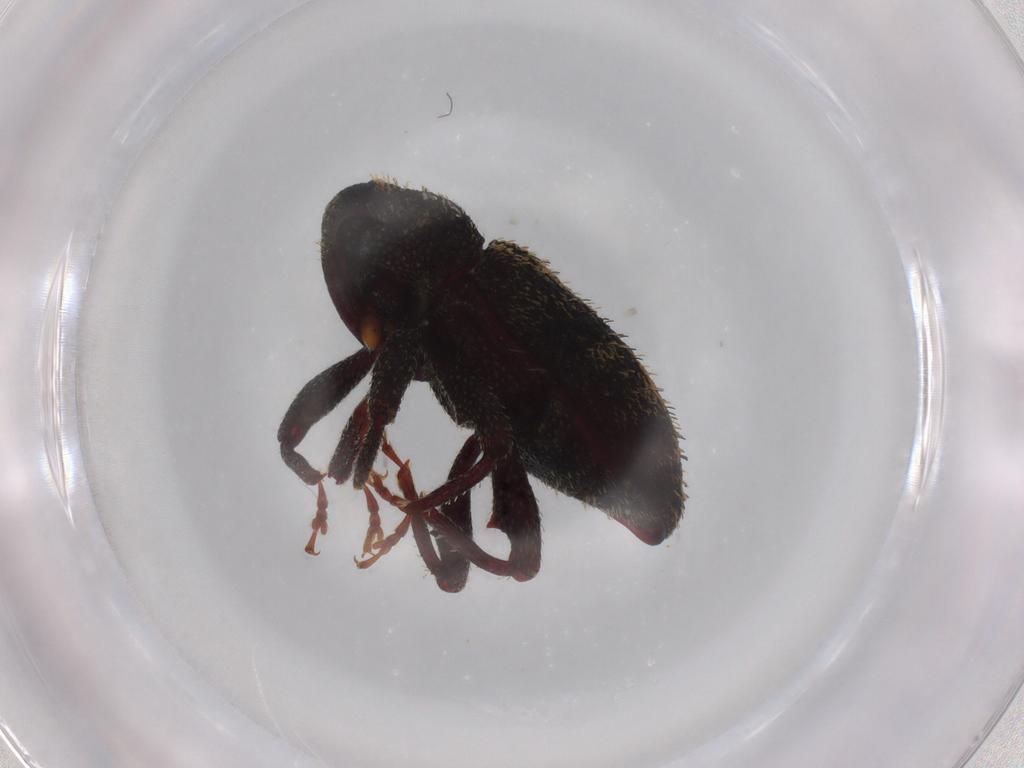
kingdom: Animalia
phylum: Arthropoda
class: Insecta
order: Coleoptera
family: Curculionidae
